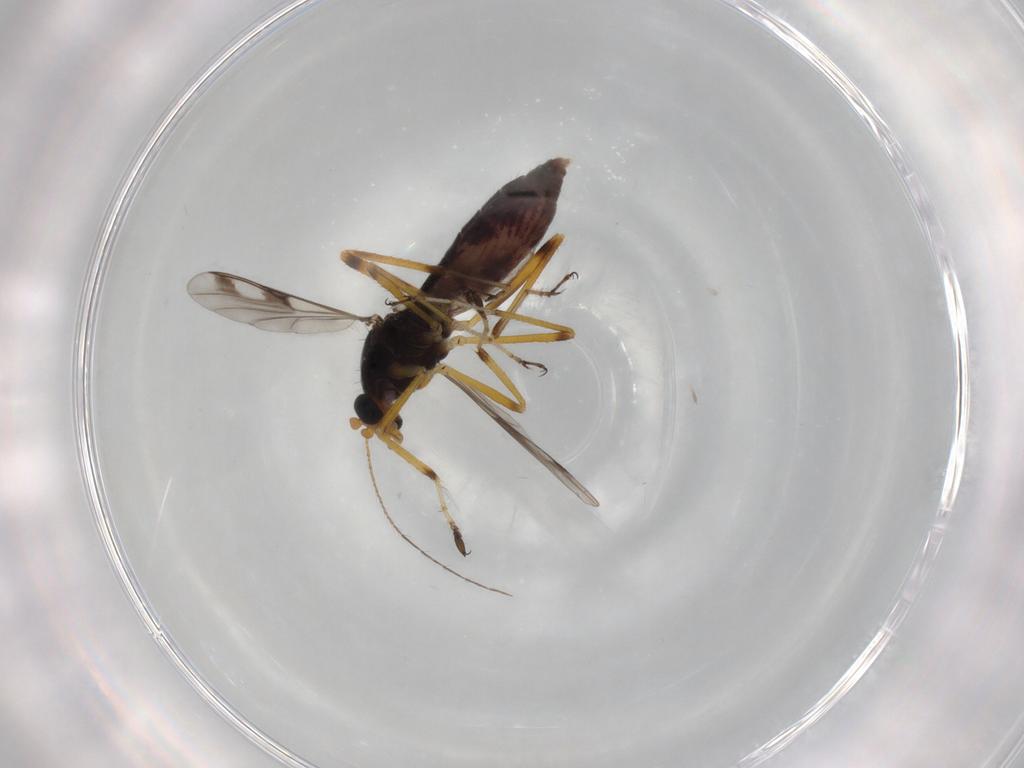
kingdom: Animalia
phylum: Arthropoda
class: Insecta
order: Diptera
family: Ceratopogonidae
